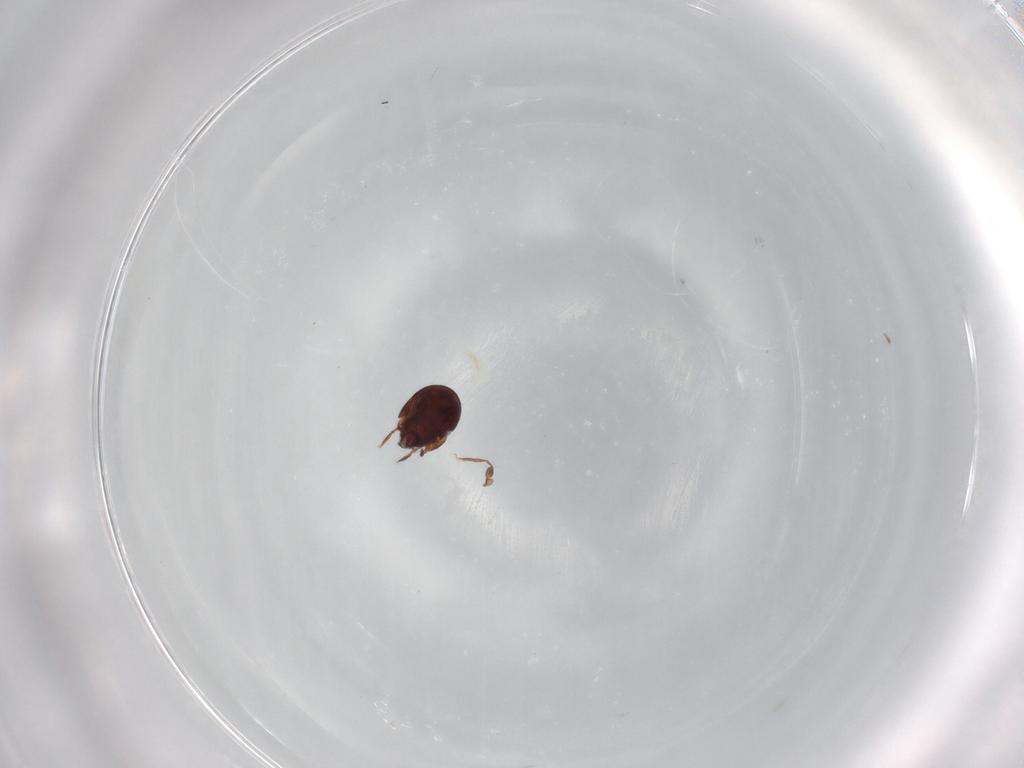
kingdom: Animalia
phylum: Arthropoda
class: Arachnida
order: Sarcoptiformes
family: Humerobatidae
